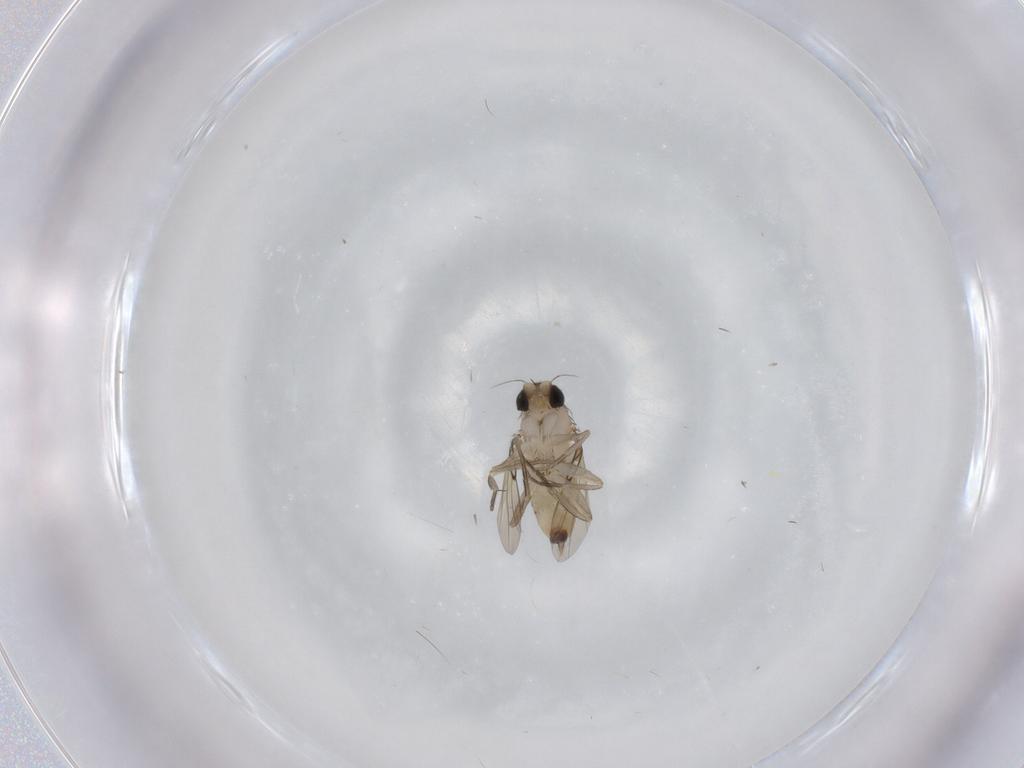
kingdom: Animalia
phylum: Arthropoda
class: Insecta
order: Diptera
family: Phoridae
